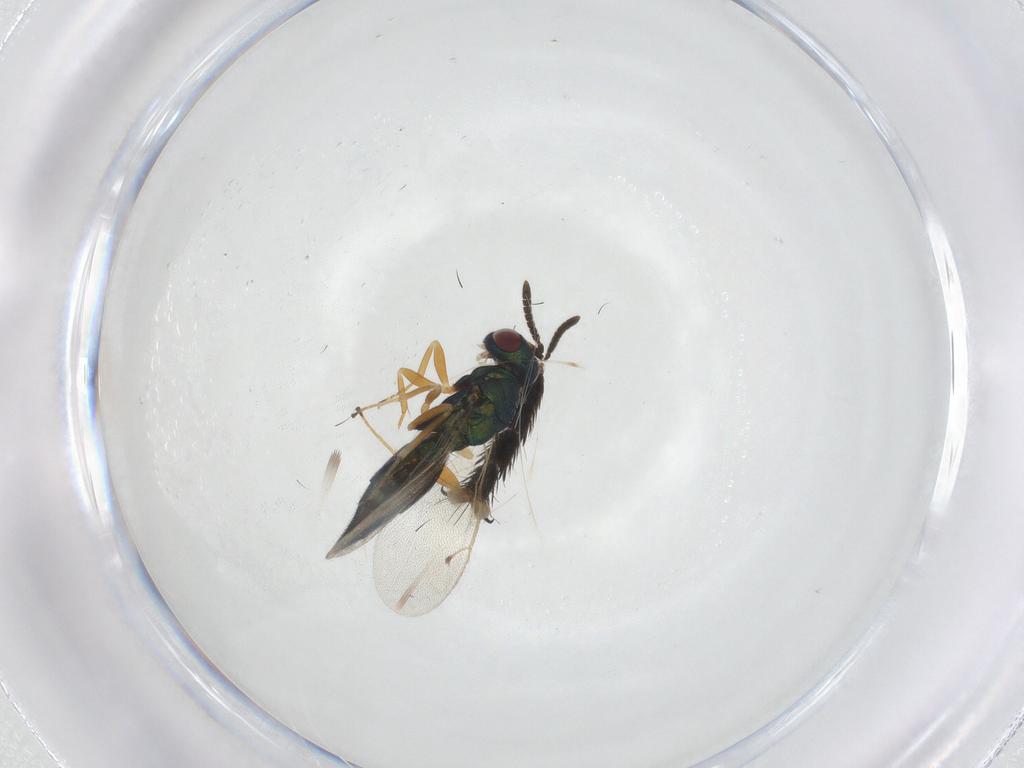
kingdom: Animalia
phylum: Arthropoda
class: Insecta
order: Hymenoptera
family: Pteromalidae
